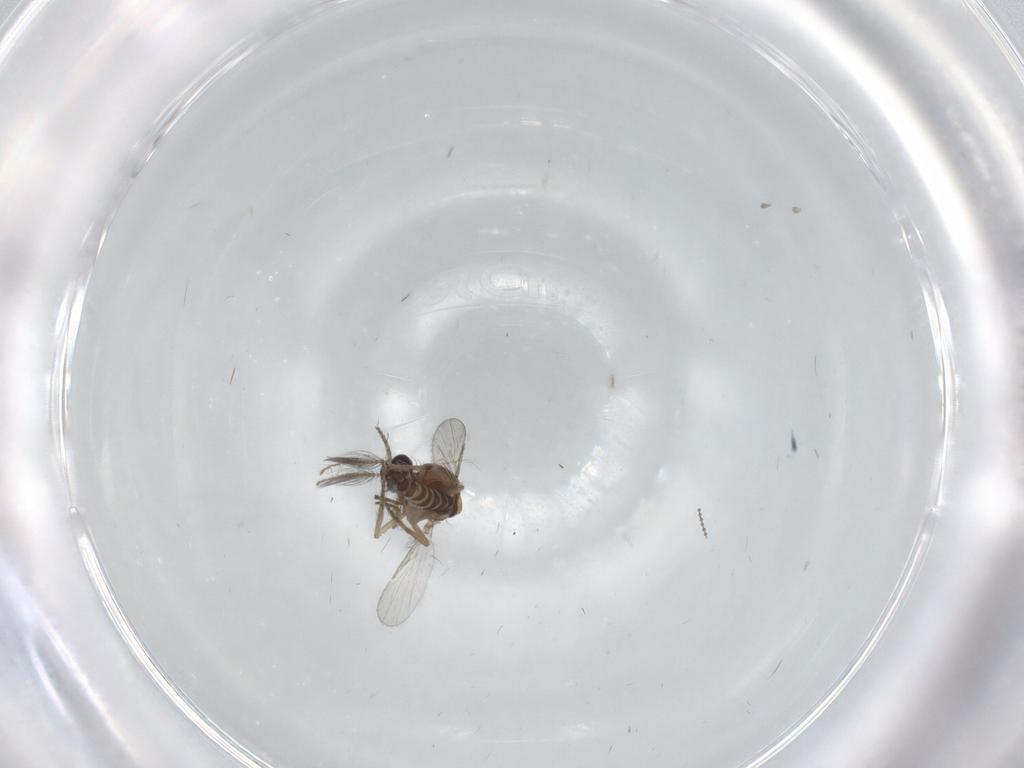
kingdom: Animalia
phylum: Arthropoda
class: Insecta
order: Diptera
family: Cecidomyiidae
